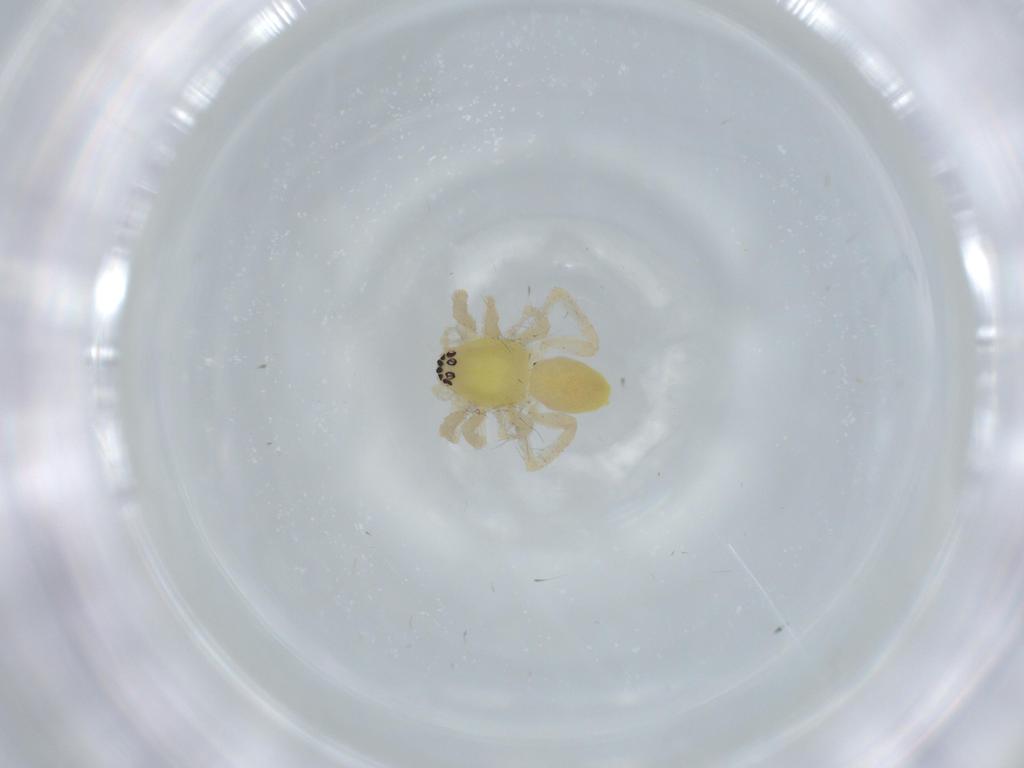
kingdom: Animalia
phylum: Arthropoda
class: Arachnida
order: Araneae
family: Anyphaenidae
